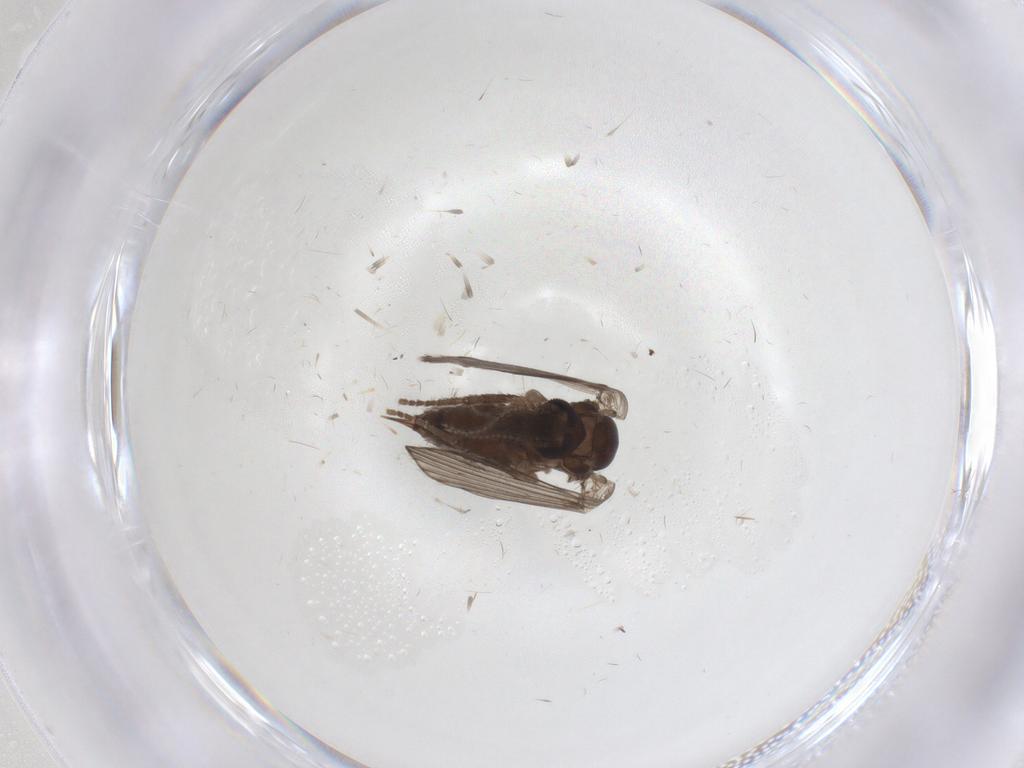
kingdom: Animalia
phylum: Arthropoda
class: Insecta
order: Diptera
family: Psychodidae
